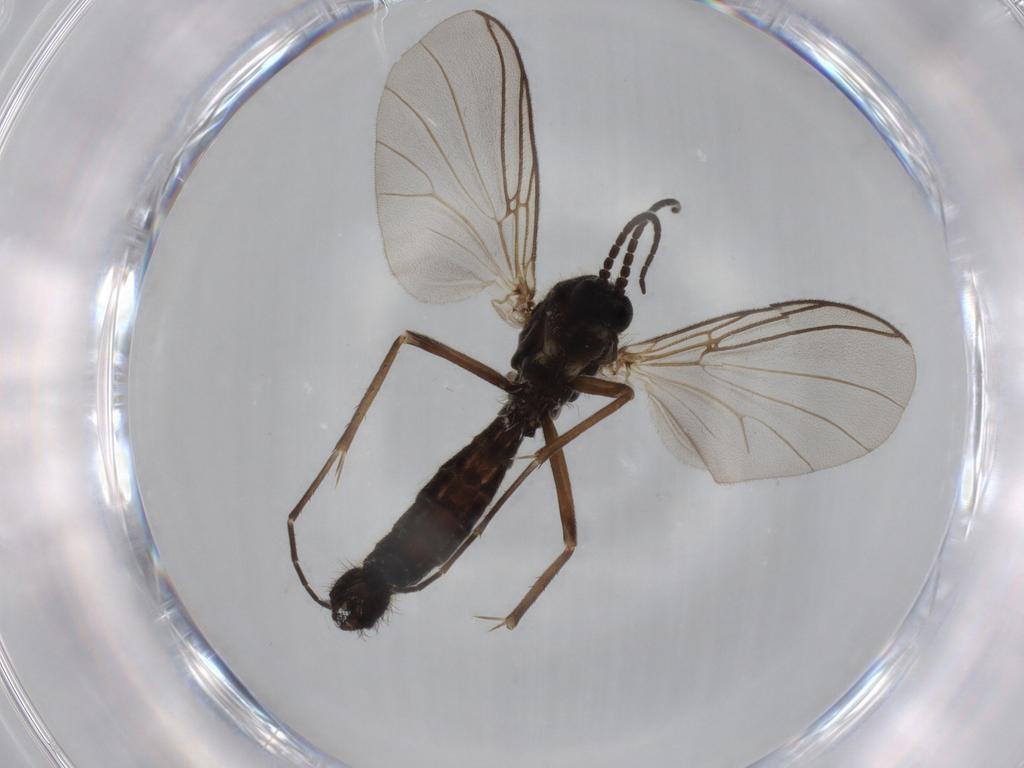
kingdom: Animalia
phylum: Arthropoda
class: Insecta
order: Diptera
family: Mycetophilidae
